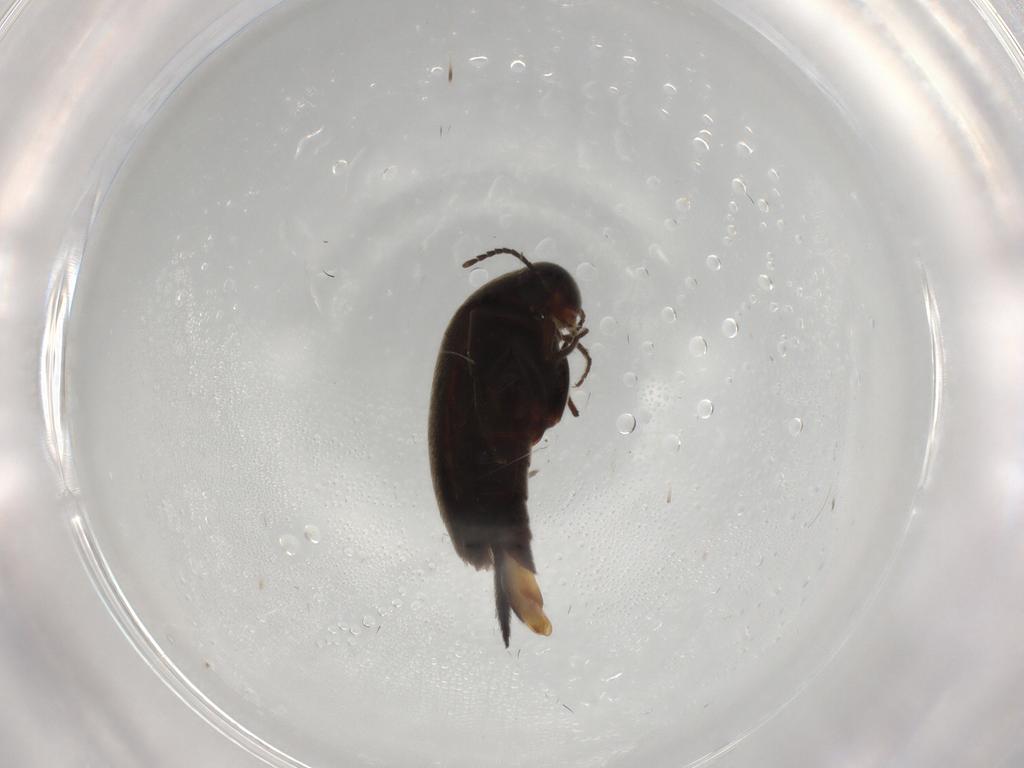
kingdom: Animalia
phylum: Arthropoda
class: Insecta
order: Coleoptera
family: Mordellidae
